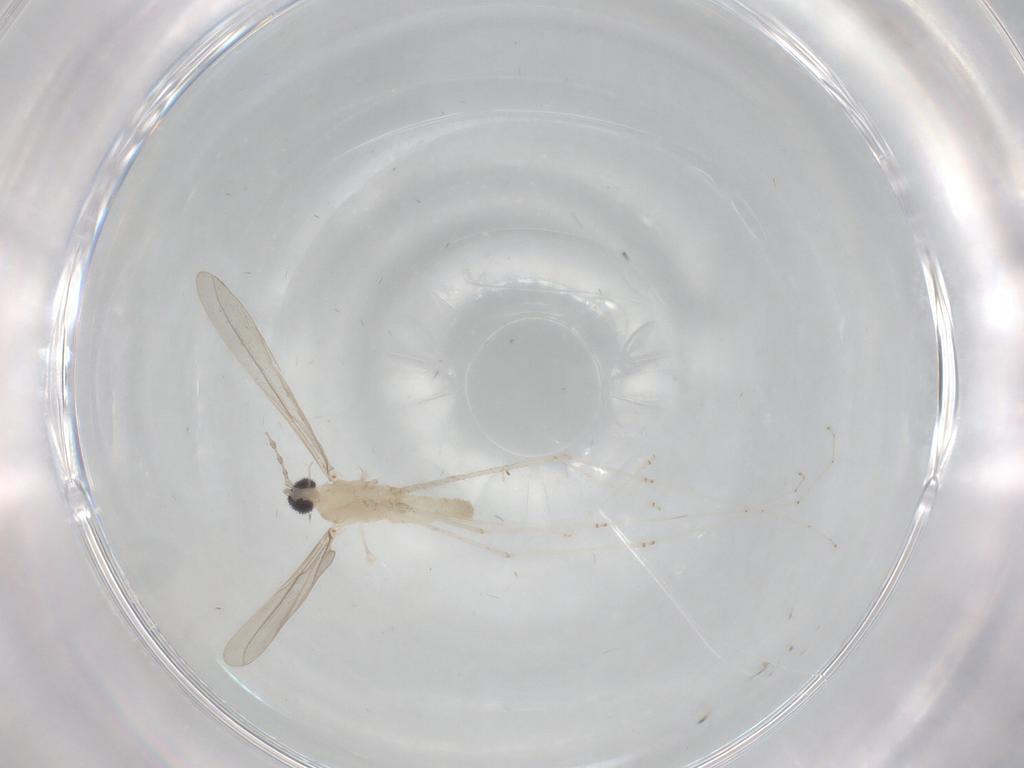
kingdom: Animalia
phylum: Arthropoda
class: Insecta
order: Diptera
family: Cecidomyiidae
